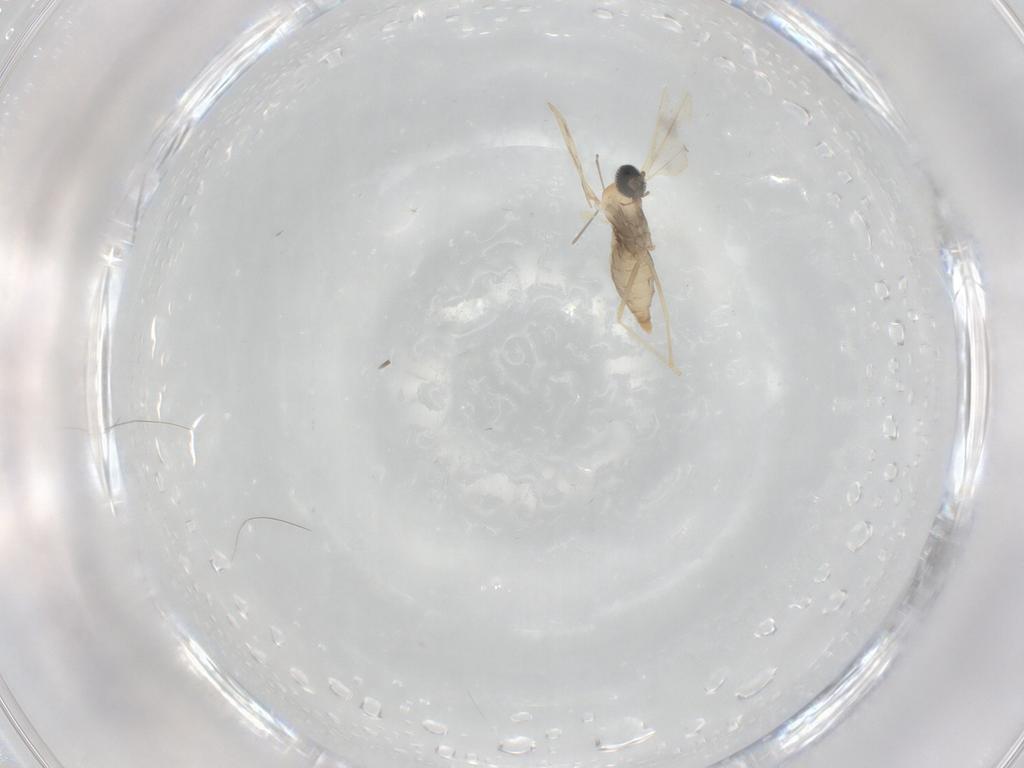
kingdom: Animalia
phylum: Arthropoda
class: Insecta
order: Diptera
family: Cecidomyiidae
